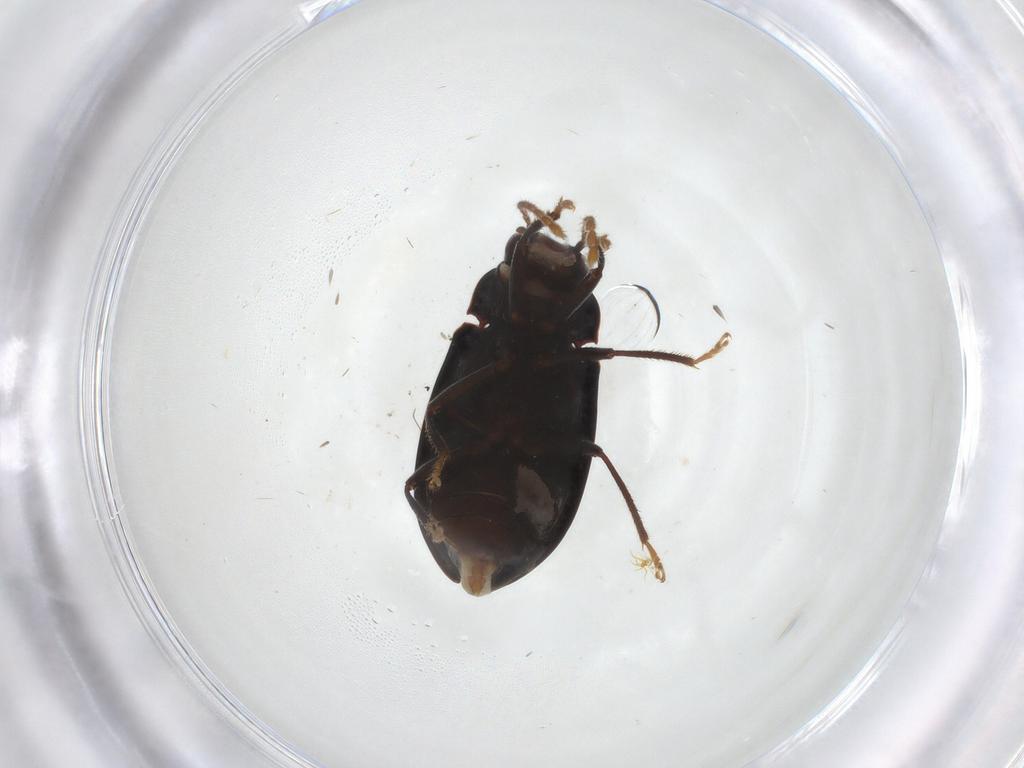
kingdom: Animalia
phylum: Arthropoda
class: Insecta
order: Coleoptera
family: Ptilodactylidae
